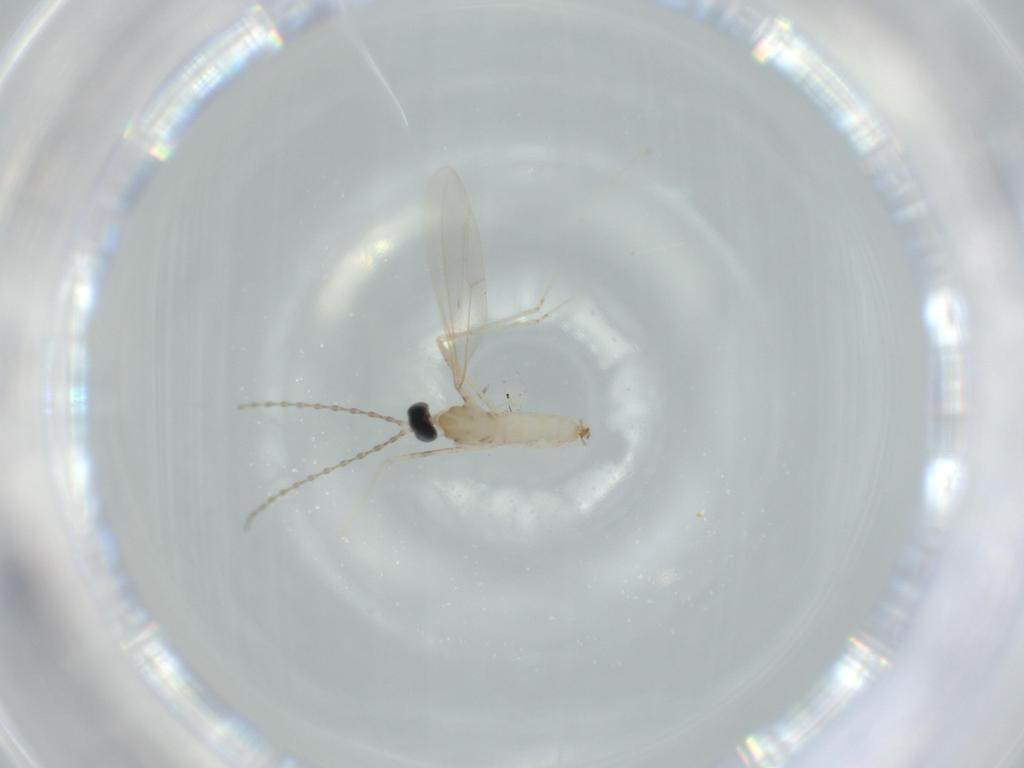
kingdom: Animalia
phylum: Arthropoda
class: Insecta
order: Diptera
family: Cecidomyiidae
